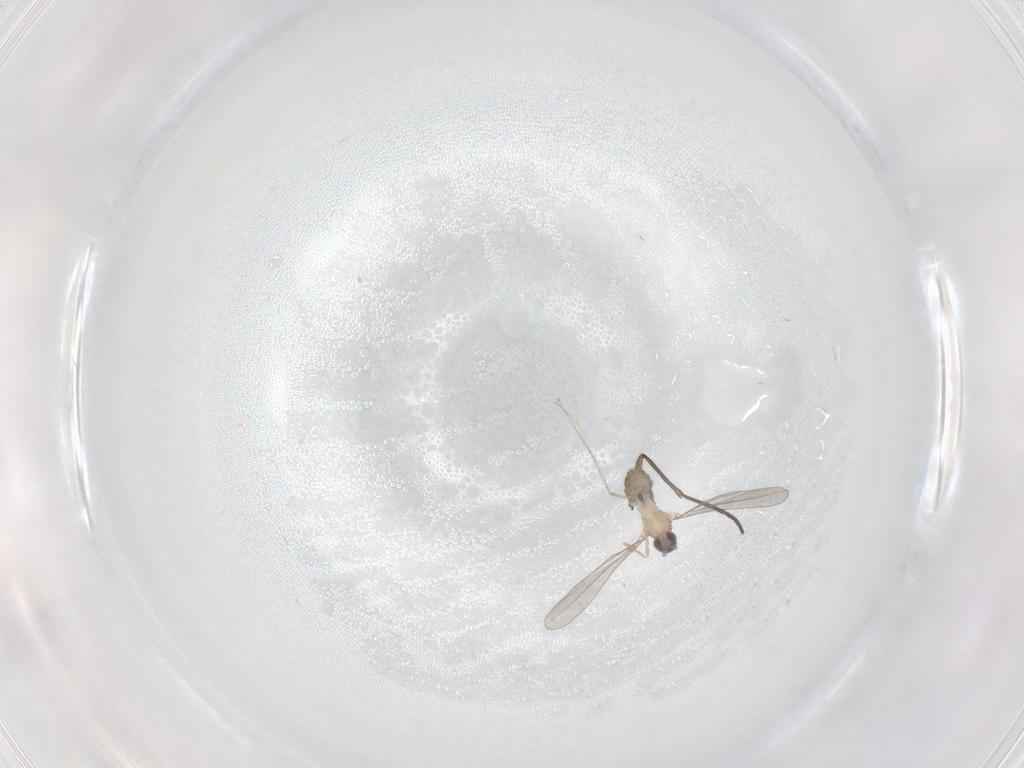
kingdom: Animalia
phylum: Arthropoda
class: Insecta
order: Diptera
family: Cecidomyiidae
